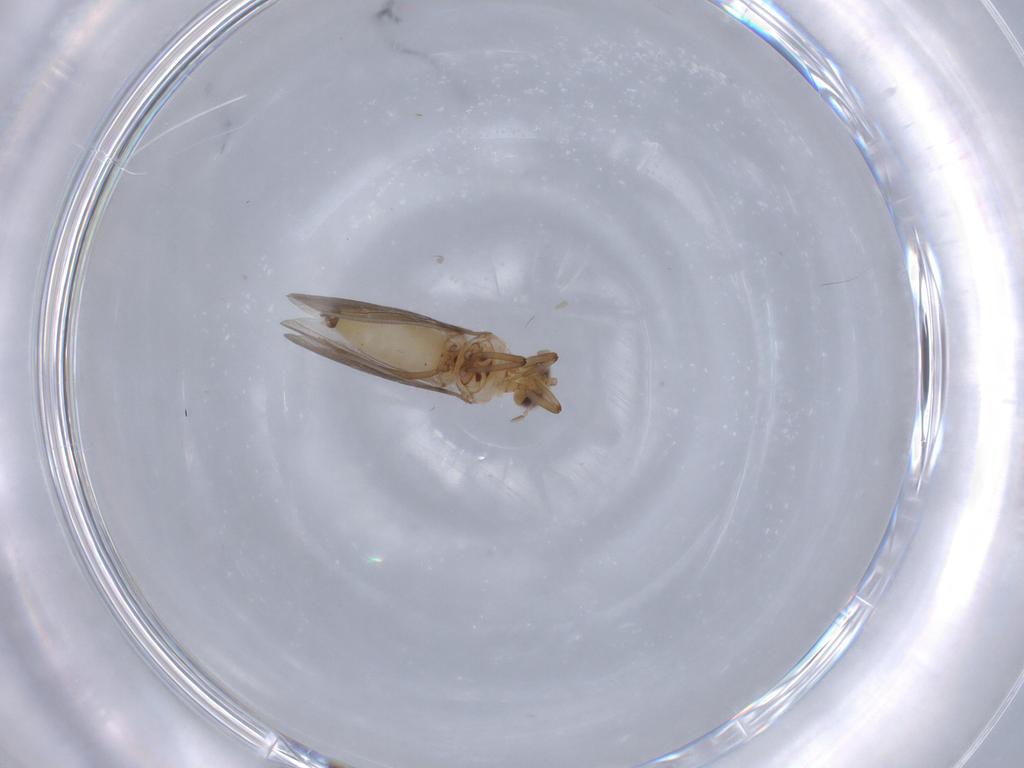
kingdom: Animalia
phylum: Arthropoda
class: Insecta
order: Neuroptera
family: Coniopterygidae
